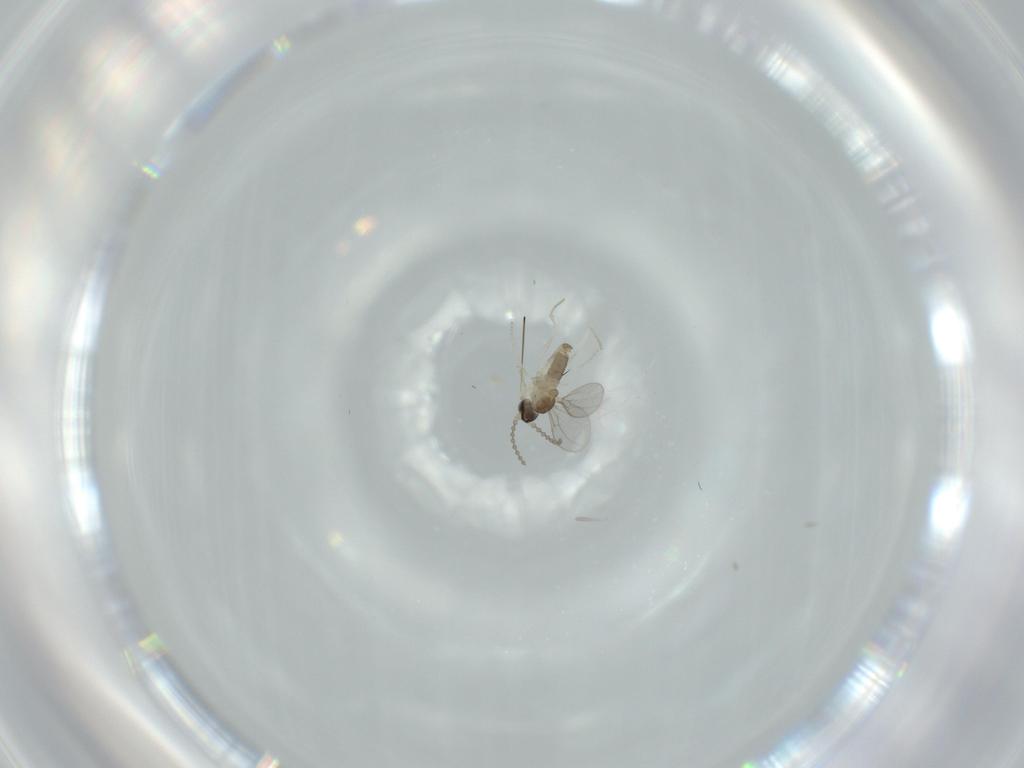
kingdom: Animalia
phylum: Arthropoda
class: Insecta
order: Diptera
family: Cecidomyiidae
